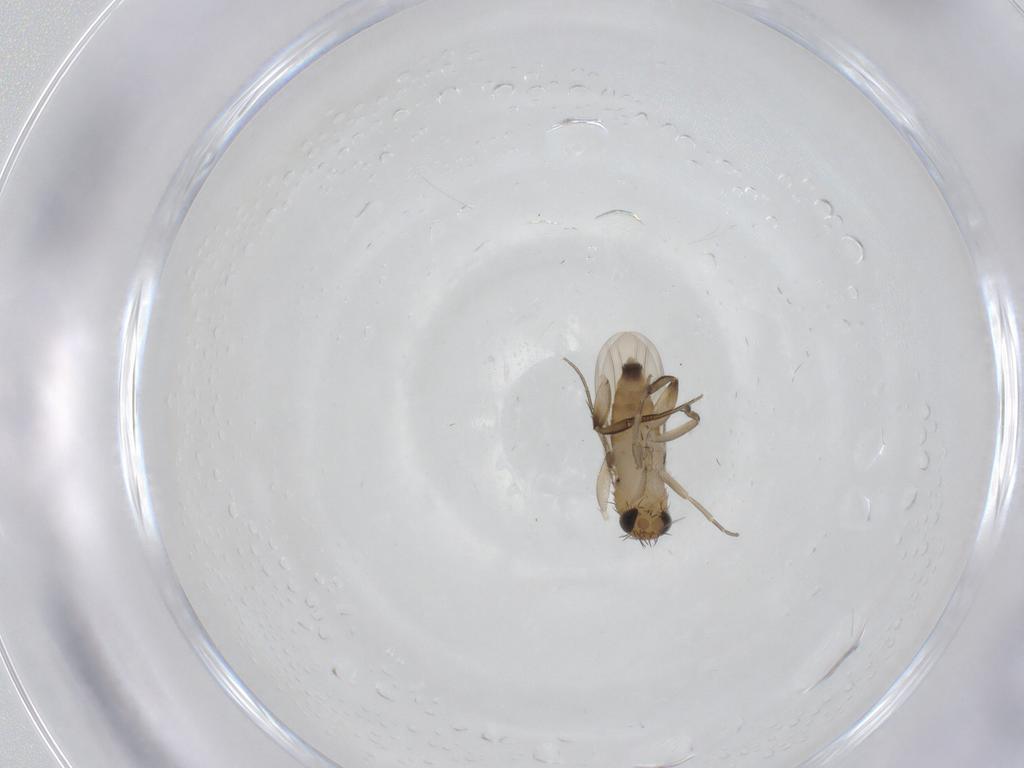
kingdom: Animalia
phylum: Arthropoda
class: Insecta
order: Diptera
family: Phoridae
